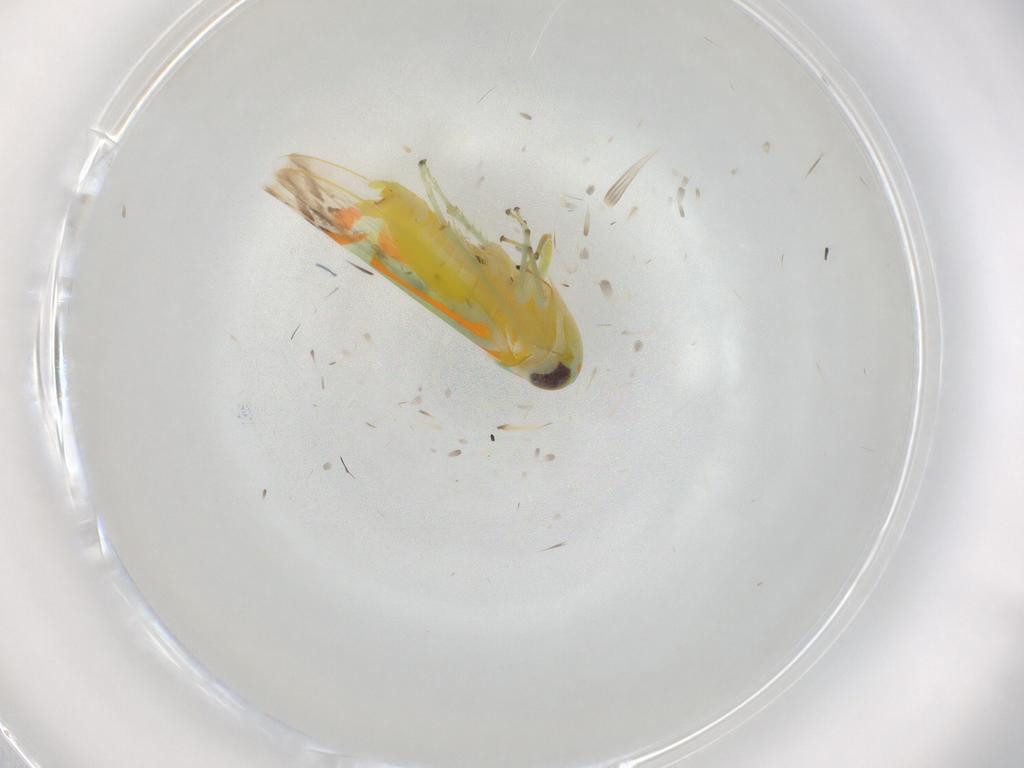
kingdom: Animalia
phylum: Arthropoda
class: Insecta
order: Hemiptera
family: Cicadellidae
